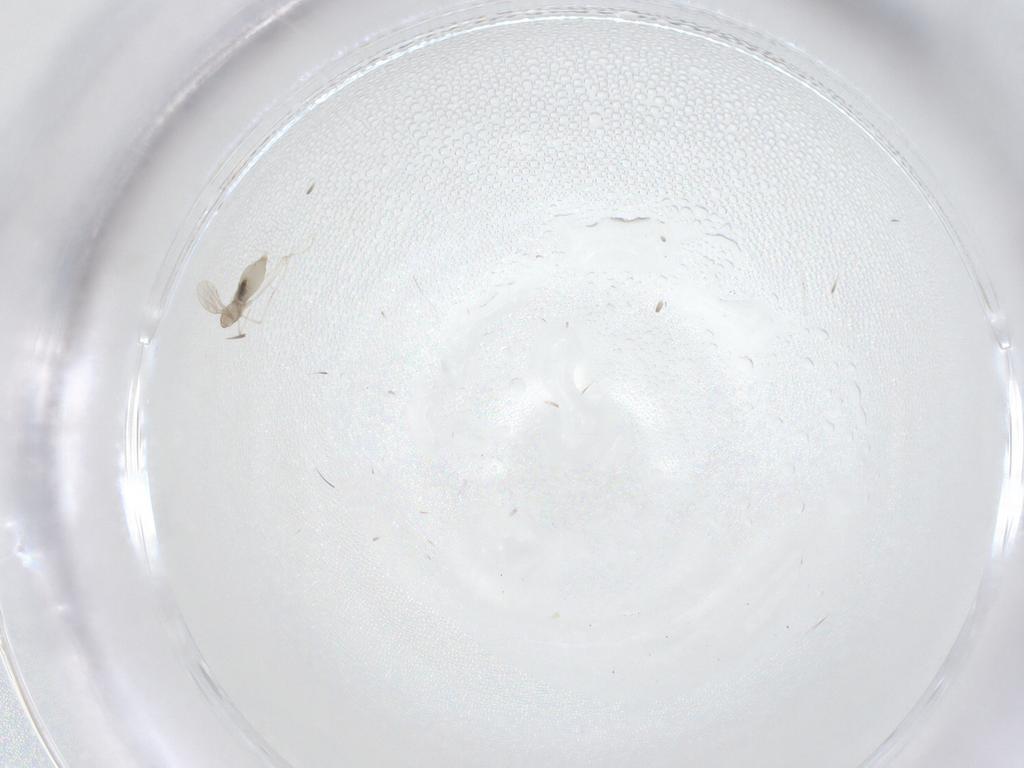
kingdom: Animalia
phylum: Arthropoda
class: Insecta
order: Diptera
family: Cecidomyiidae
